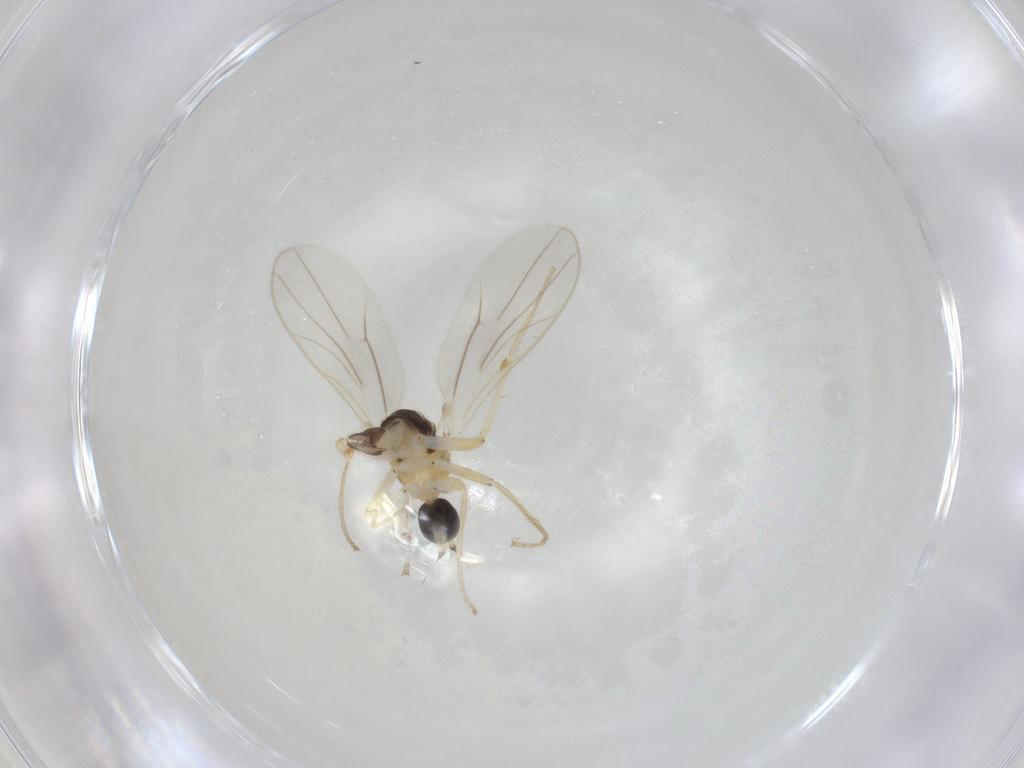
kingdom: Animalia
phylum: Arthropoda
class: Insecta
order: Diptera
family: Hybotidae
